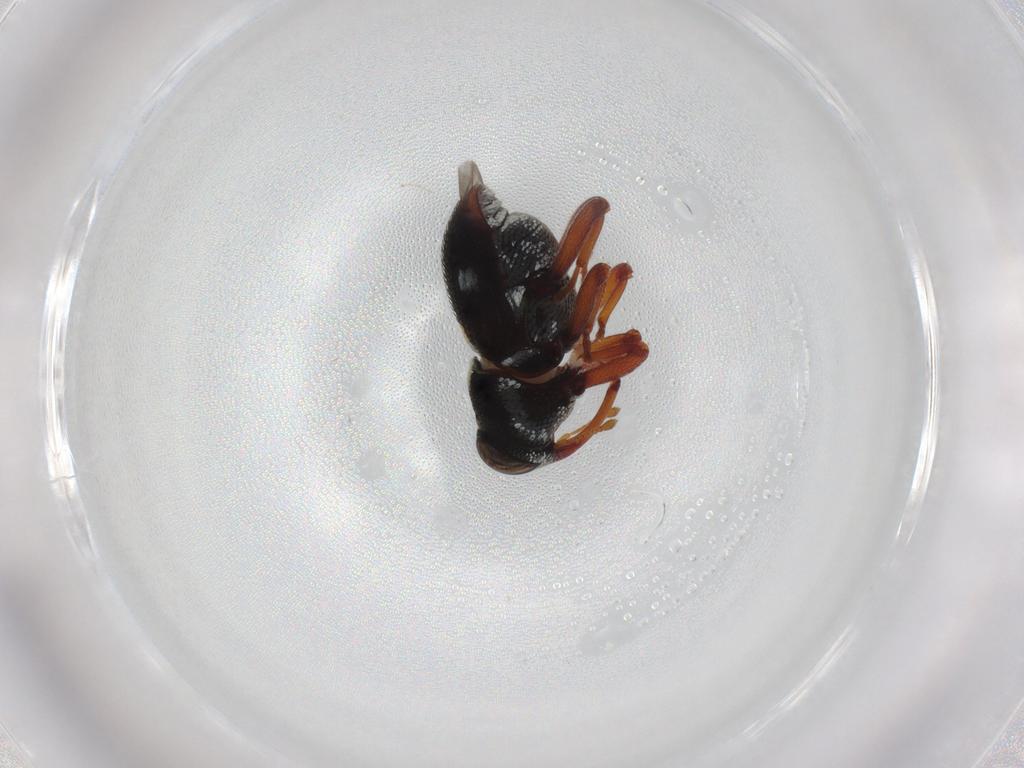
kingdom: Animalia
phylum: Arthropoda
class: Insecta
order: Coleoptera
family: Curculionidae
